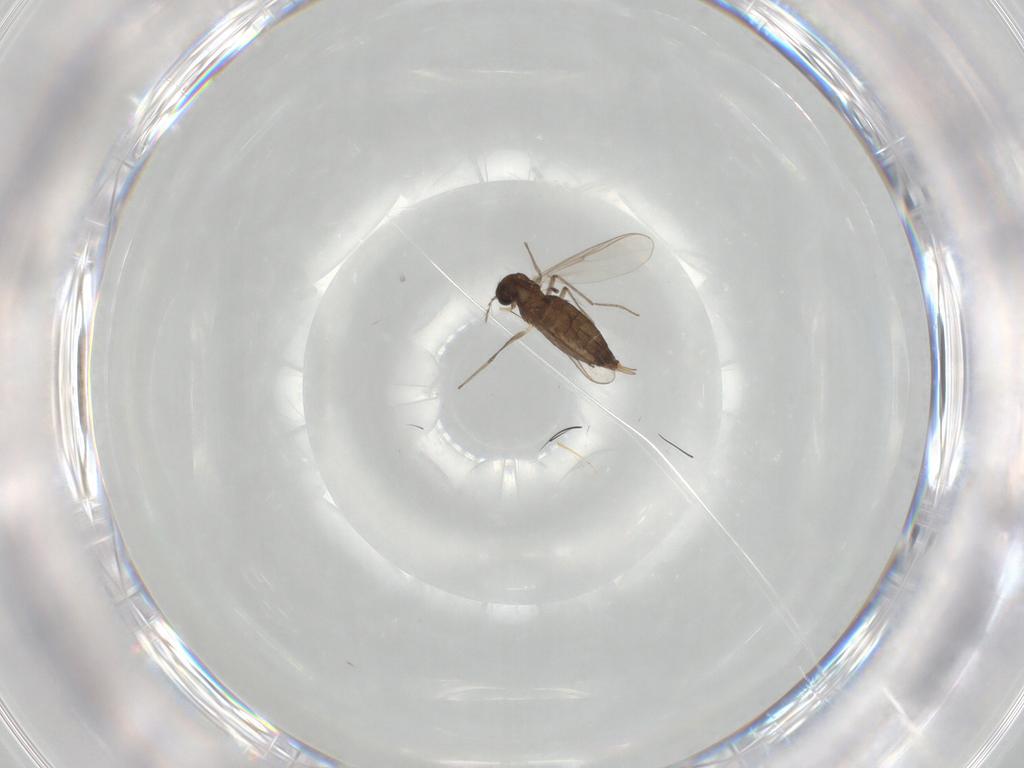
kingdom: Animalia
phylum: Arthropoda
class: Insecta
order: Diptera
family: Chironomidae
